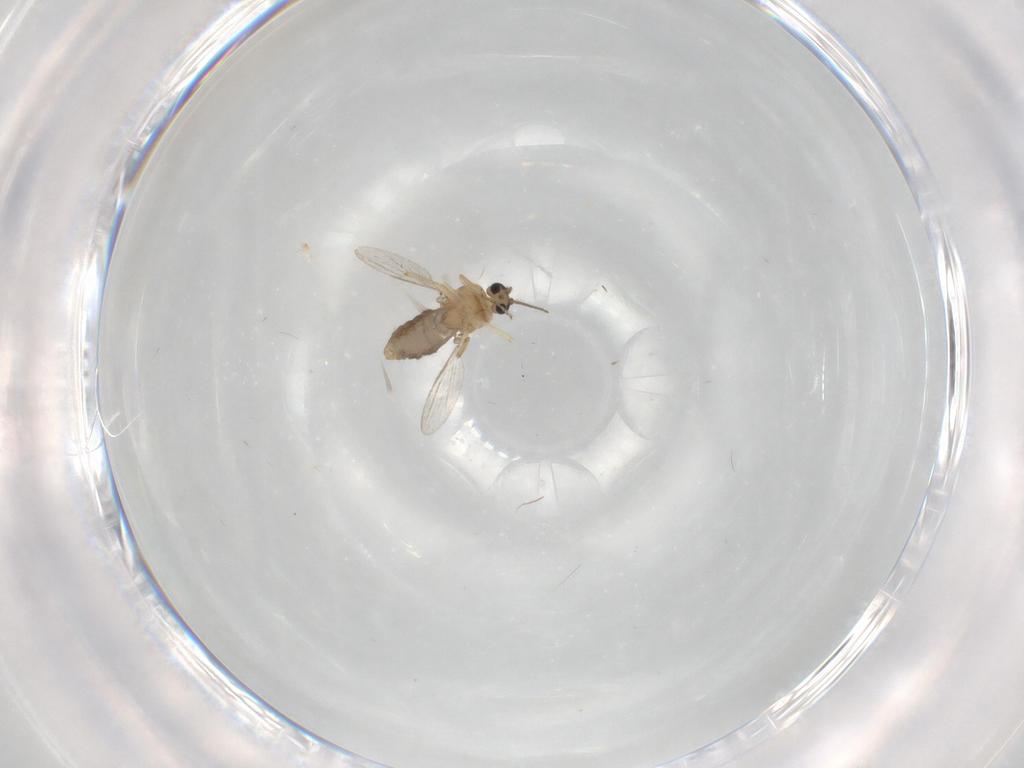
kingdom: Animalia
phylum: Arthropoda
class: Insecta
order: Diptera
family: Ceratopogonidae
